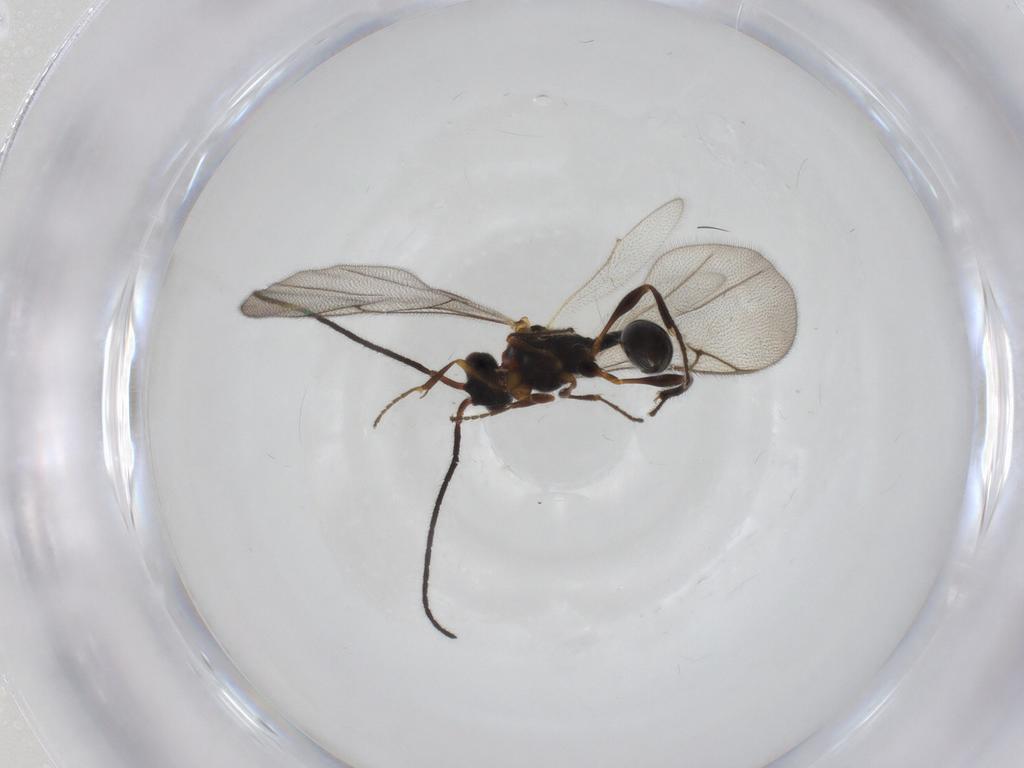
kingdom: Animalia
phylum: Arthropoda
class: Insecta
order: Hymenoptera
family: Diapriidae
